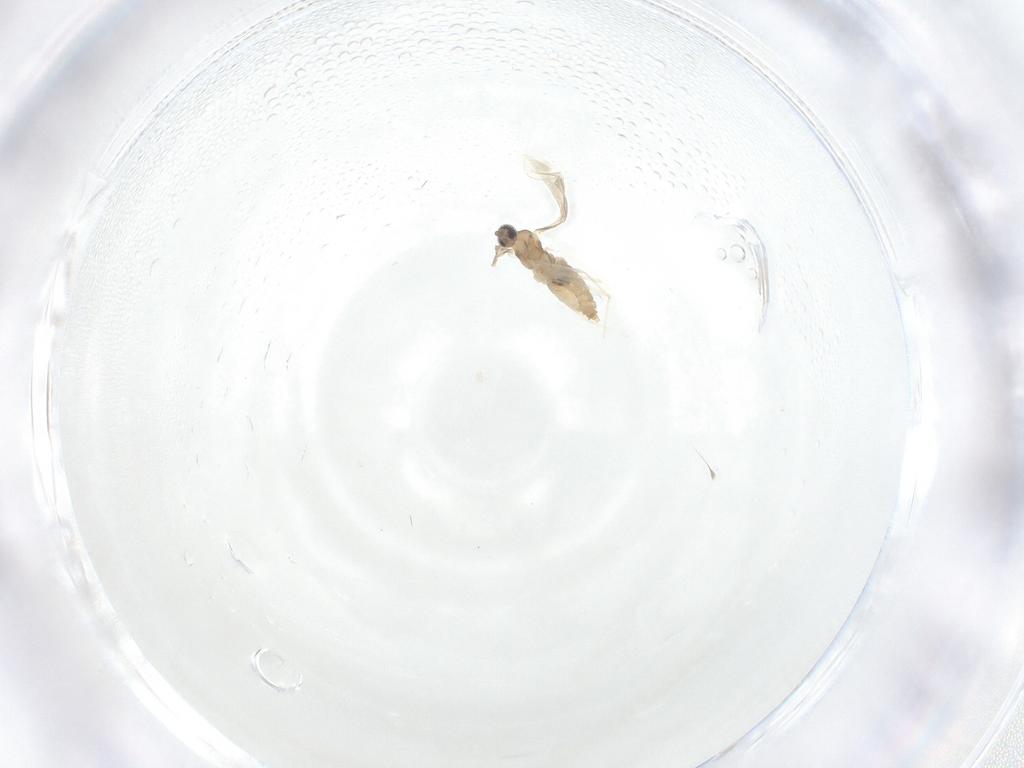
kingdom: Animalia
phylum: Arthropoda
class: Insecta
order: Diptera
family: Cecidomyiidae
